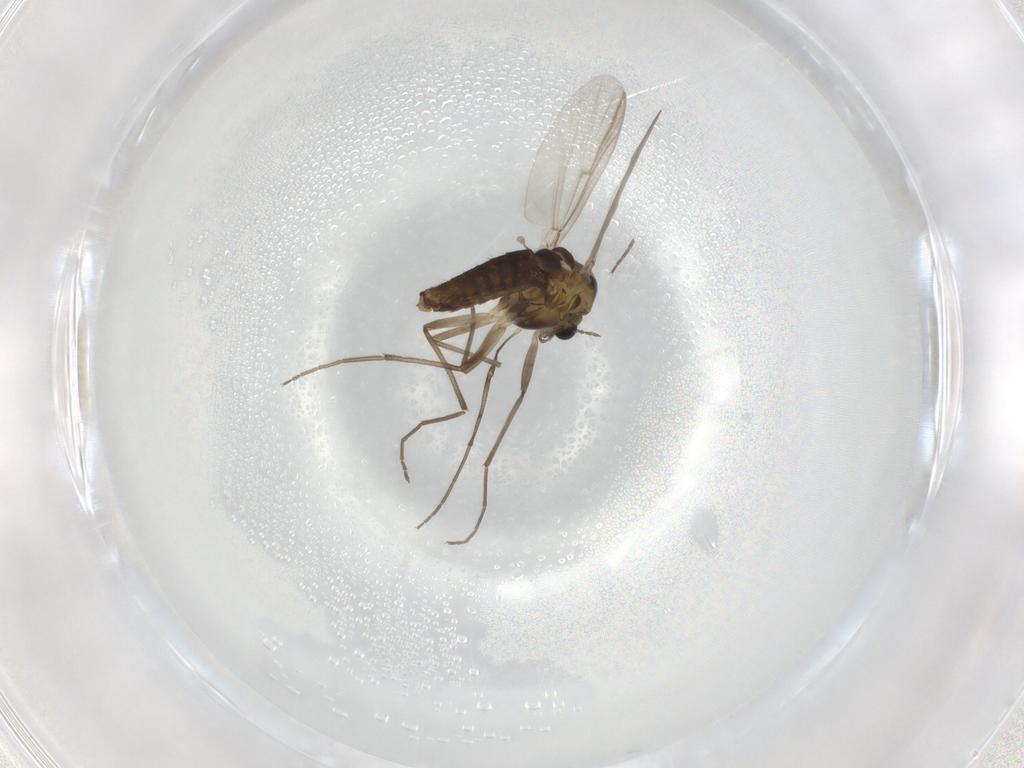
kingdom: Animalia
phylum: Arthropoda
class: Insecta
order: Diptera
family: Chironomidae
